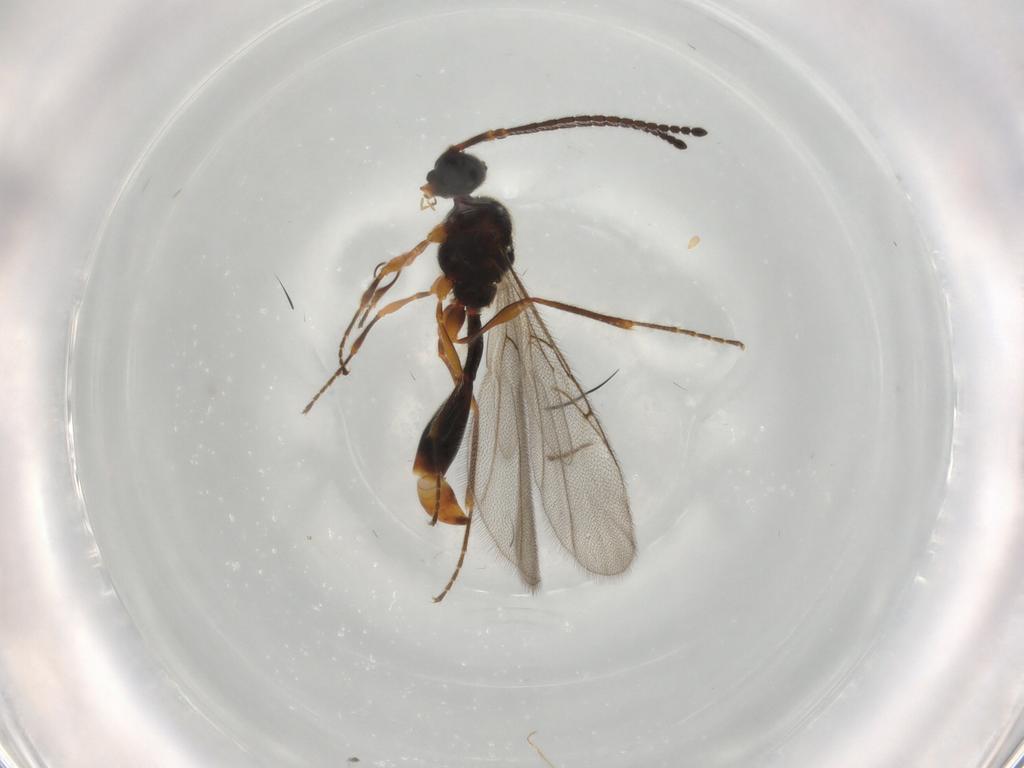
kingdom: Animalia
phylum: Arthropoda
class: Insecta
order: Hymenoptera
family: Diapriidae
